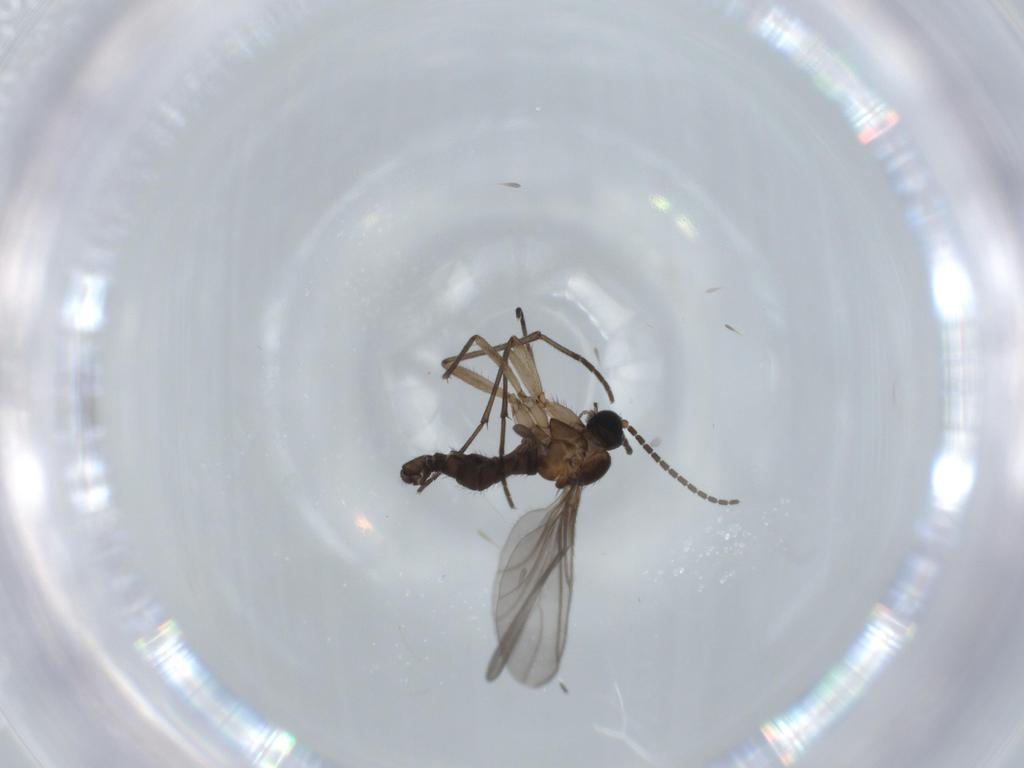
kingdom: Animalia
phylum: Arthropoda
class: Insecta
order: Diptera
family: Sciaridae
